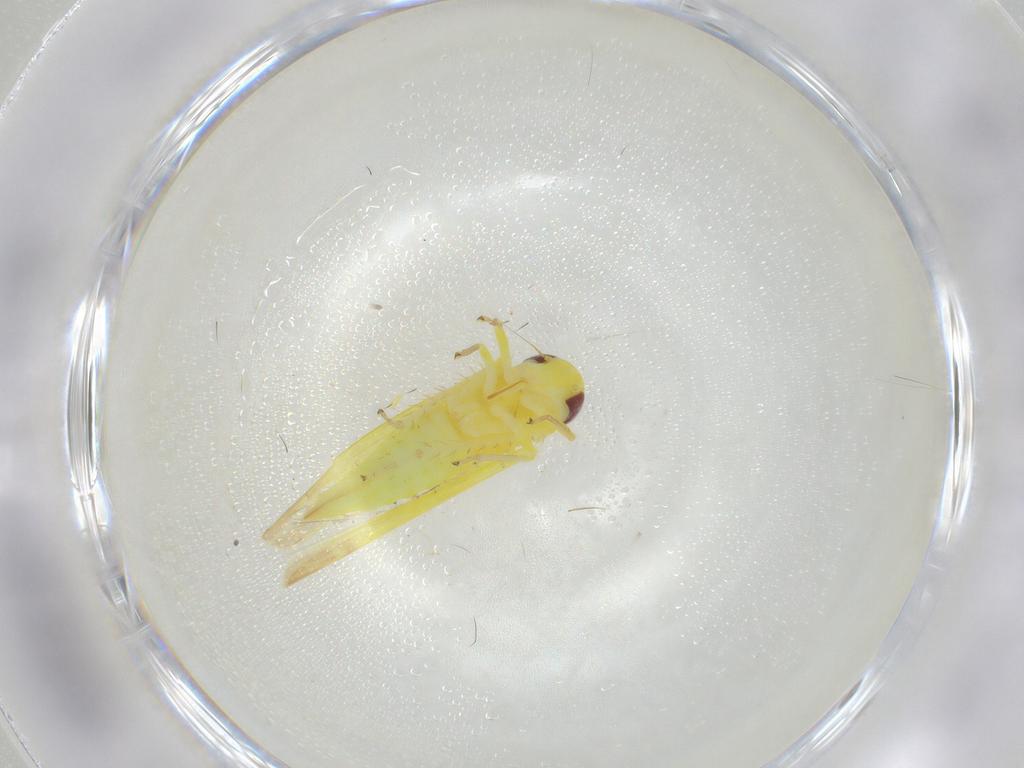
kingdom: Animalia
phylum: Arthropoda
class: Insecta
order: Hemiptera
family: Cicadellidae
